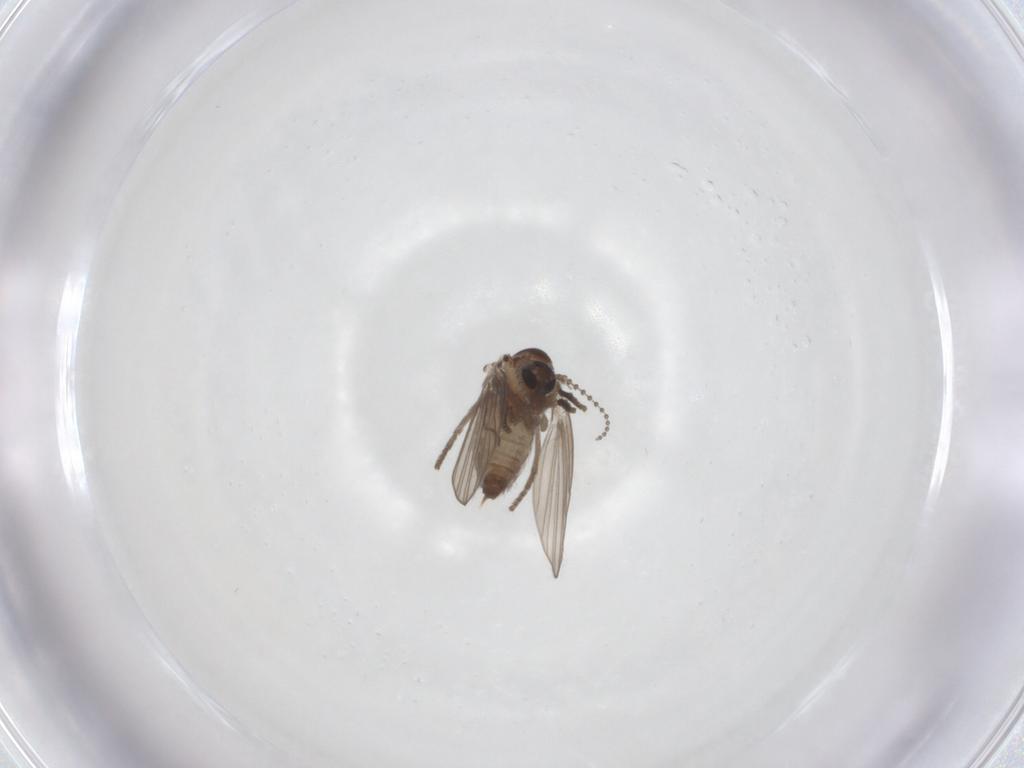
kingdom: Animalia
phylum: Arthropoda
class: Insecta
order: Diptera
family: Psychodidae
